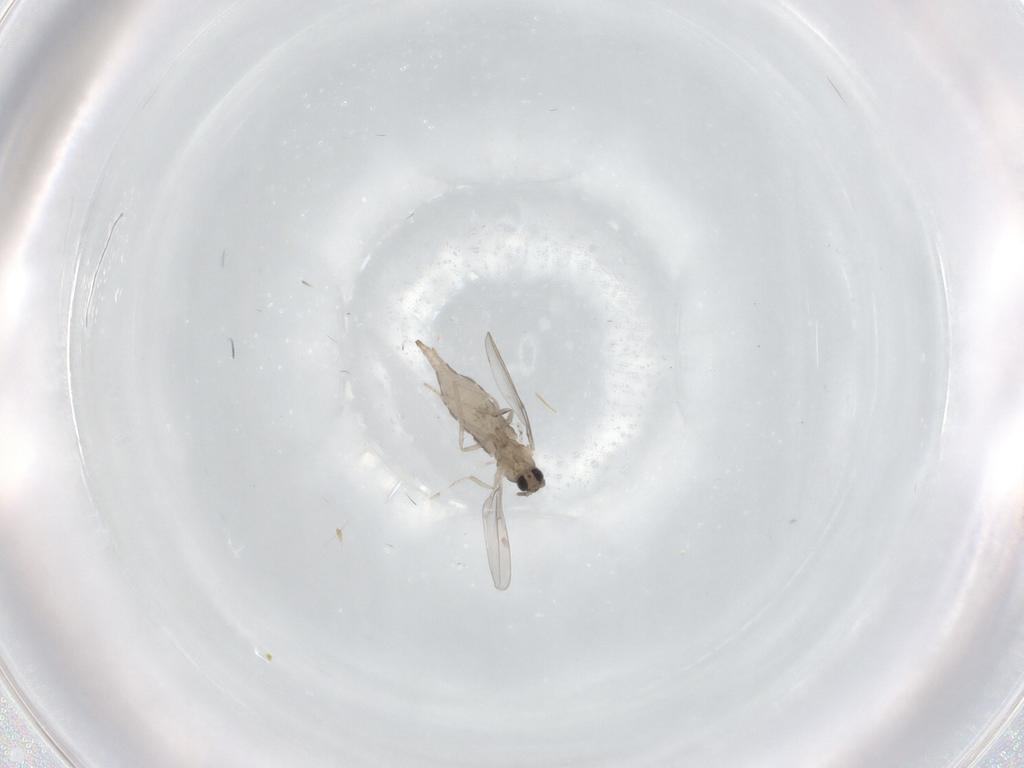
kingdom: Animalia
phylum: Arthropoda
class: Insecta
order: Diptera
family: Cecidomyiidae
